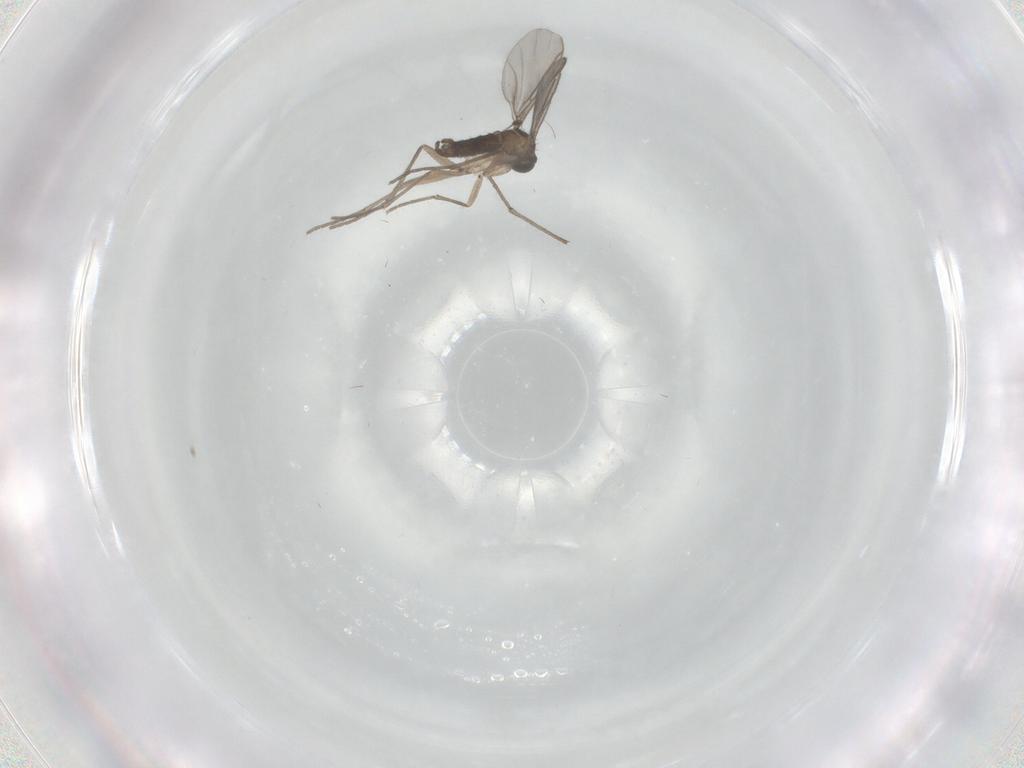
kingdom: Animalia
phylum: Arthropoda
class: Insecta
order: Diptera
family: Sciaridae
